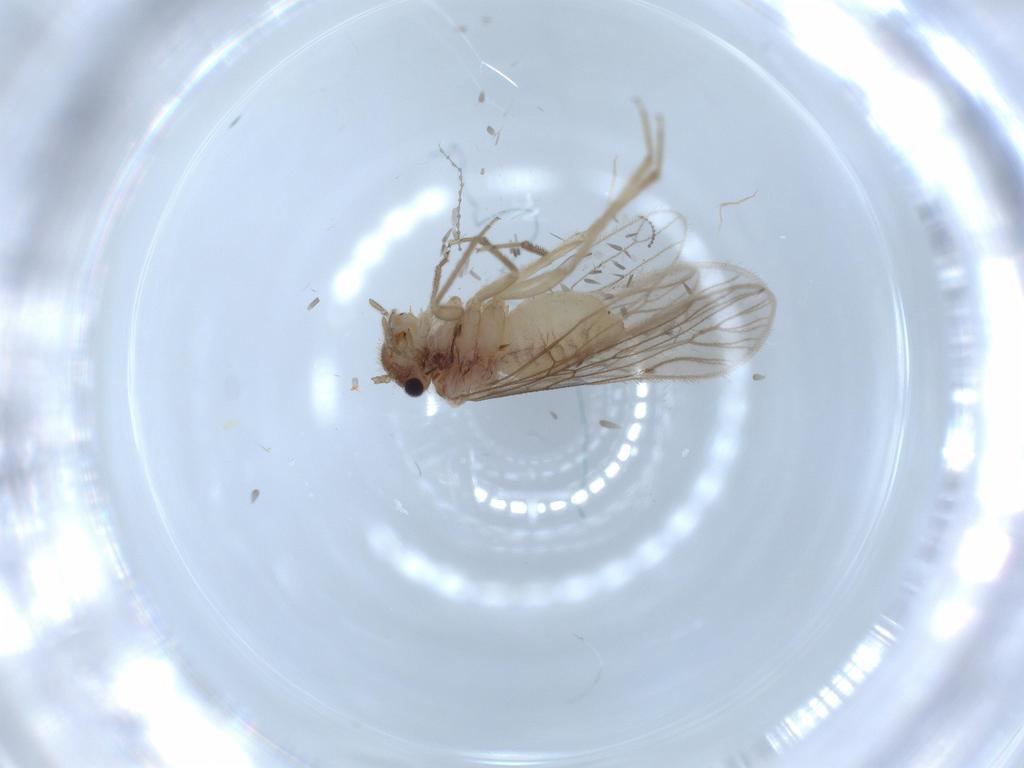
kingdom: Animalia
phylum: Arthropoda
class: Insecta
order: Psocodea
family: Cladiopsocidae
